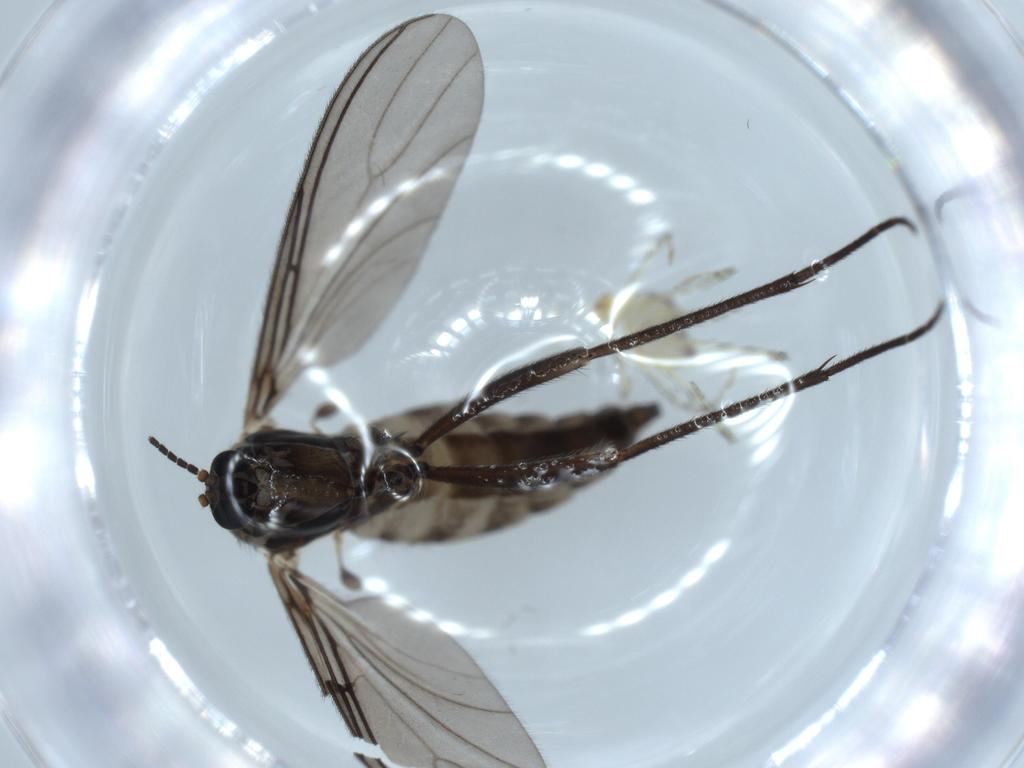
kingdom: Animalia
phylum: Arthropoda
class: Insecta
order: Diptera
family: Sciaridae
